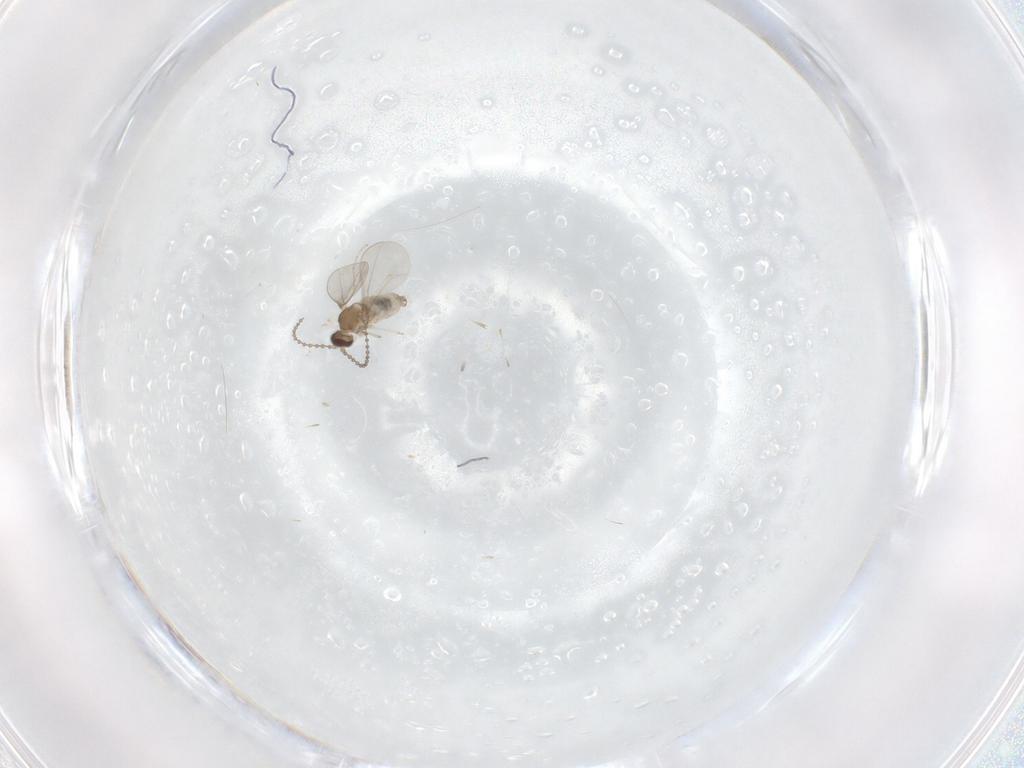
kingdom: Animalia
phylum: Arthropoda
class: Insecta
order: Diptera
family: Cecidomyiidae
